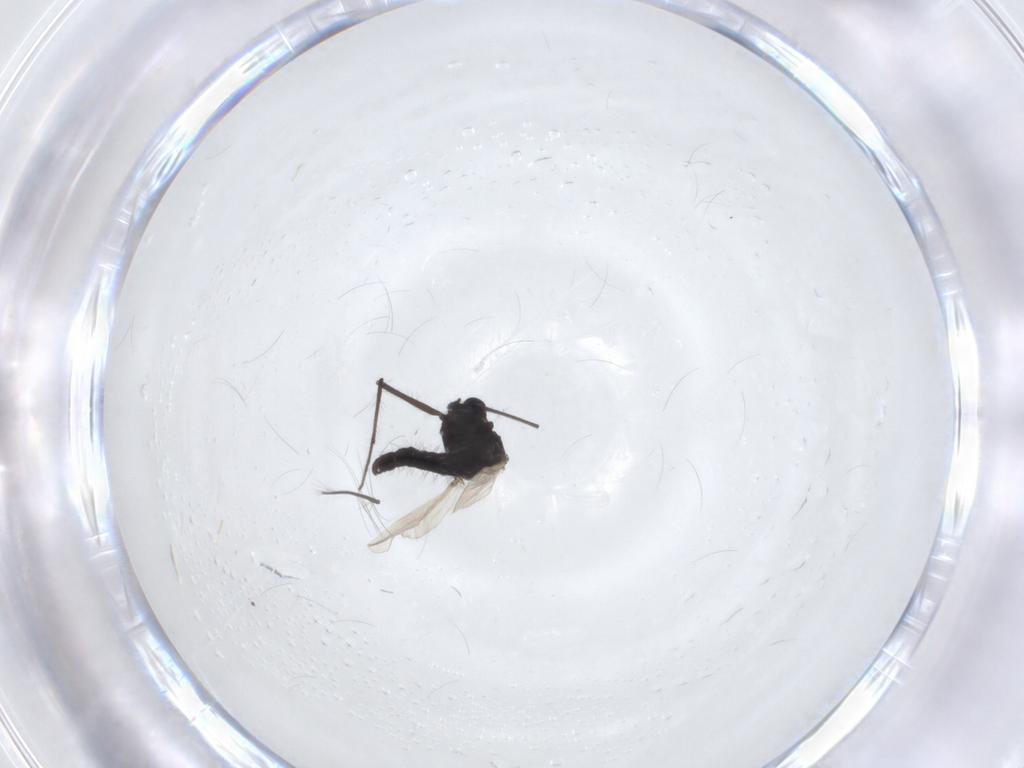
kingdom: Animalia
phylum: Arthropoda
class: Insecta
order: Diptera
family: Chironomidae
